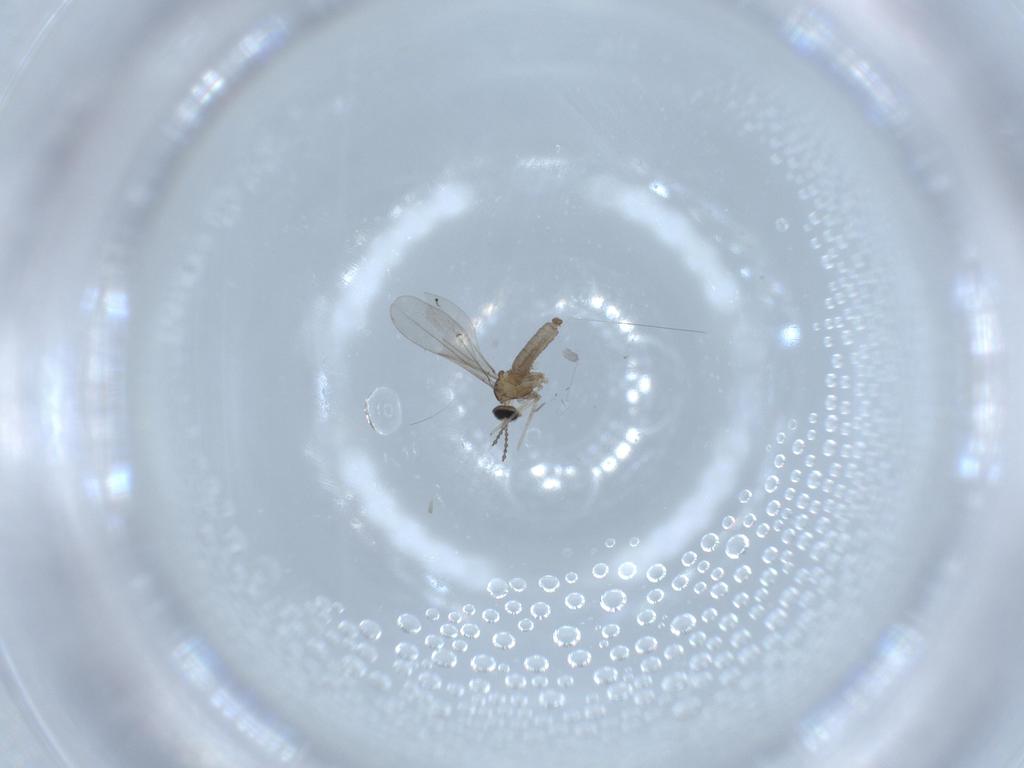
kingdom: Animalia
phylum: Arthropoda
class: Insecta
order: Diptera
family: Cecidomyiidae
